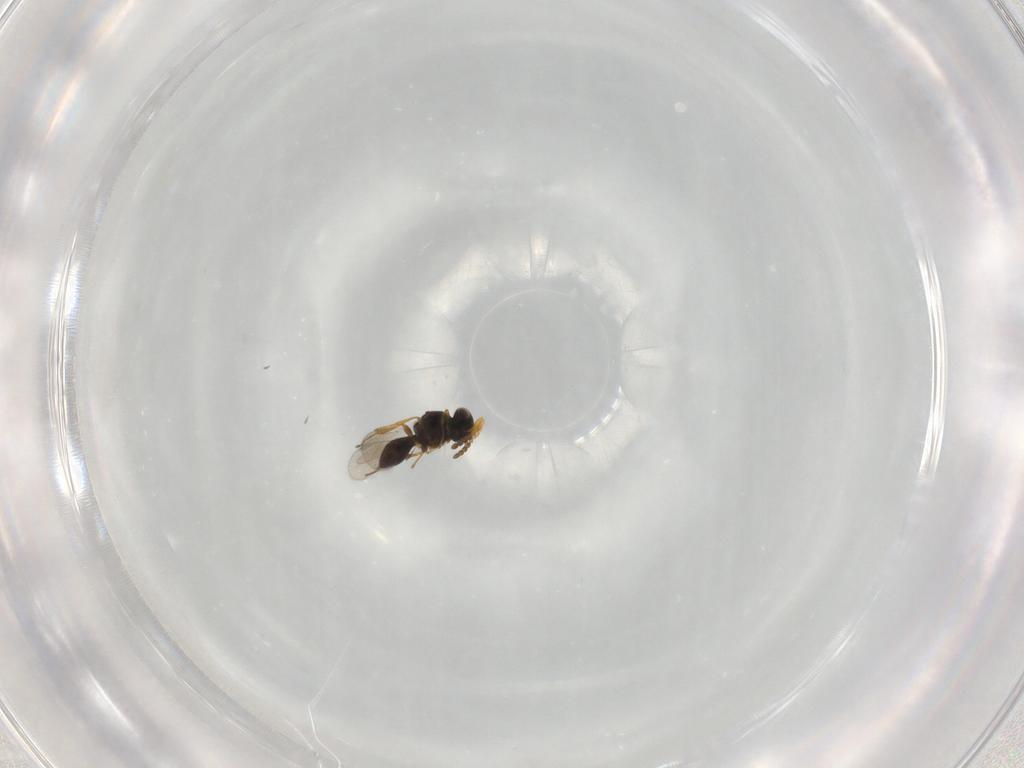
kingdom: Animalia
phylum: Arthropoda
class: Insecta
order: Hymenoptera
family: Platygastridae
